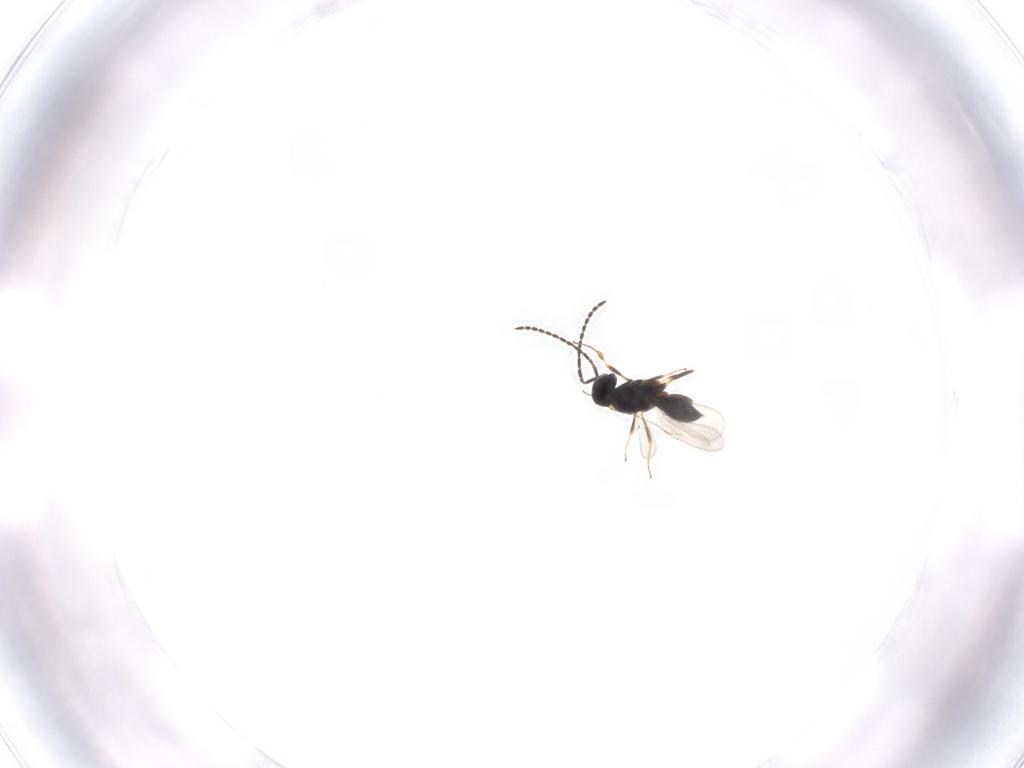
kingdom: Animalia
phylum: Arthropoda
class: Insecta
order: Hymenoptera
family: Scelionidae
